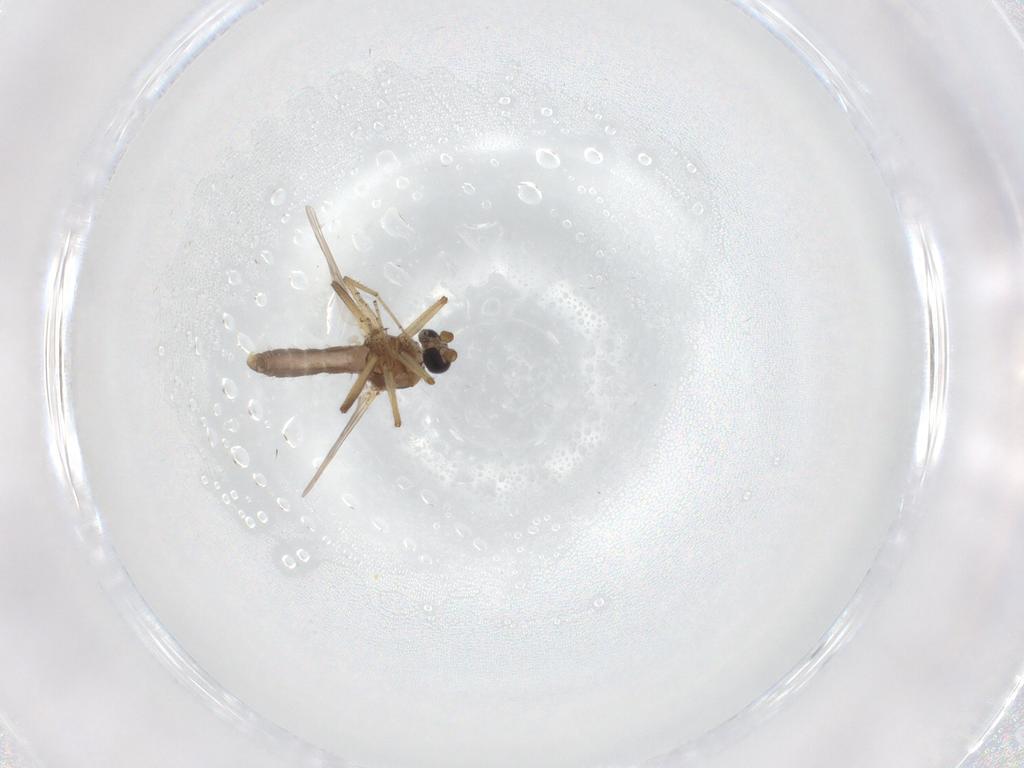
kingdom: Animalia
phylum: Arthropoda
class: Insecta
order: Diptera
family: Ceratopogonidae
